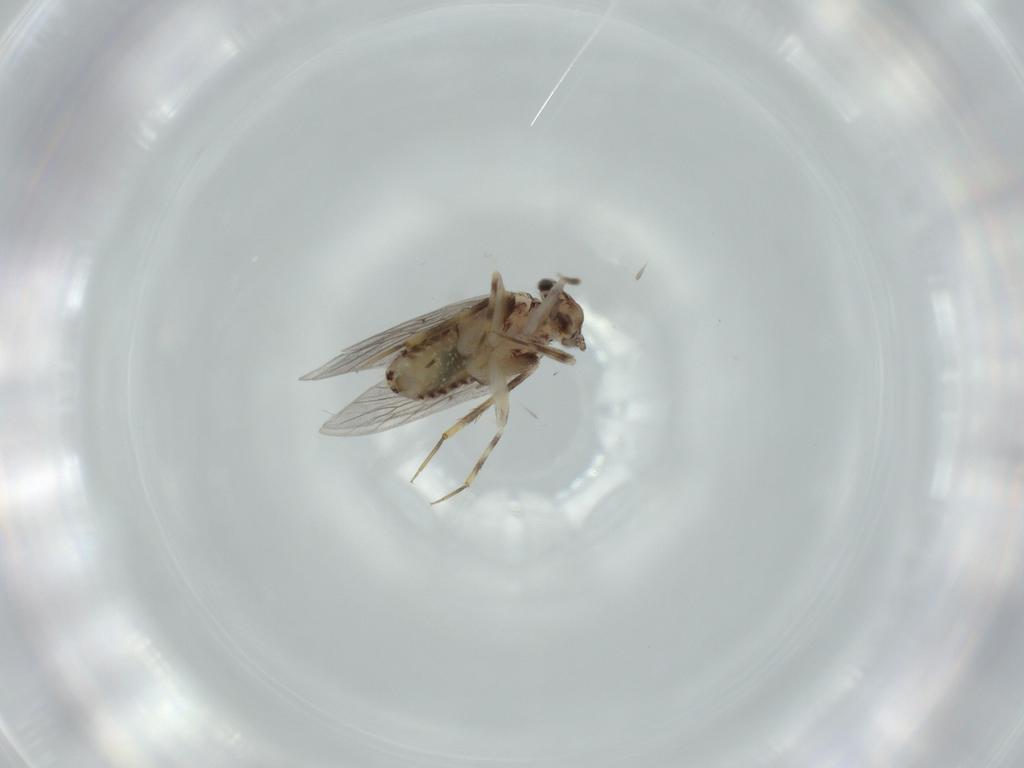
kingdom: Animalia
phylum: Arthropoda
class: Insecta
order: Psocodea
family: Lepidopsocidae
